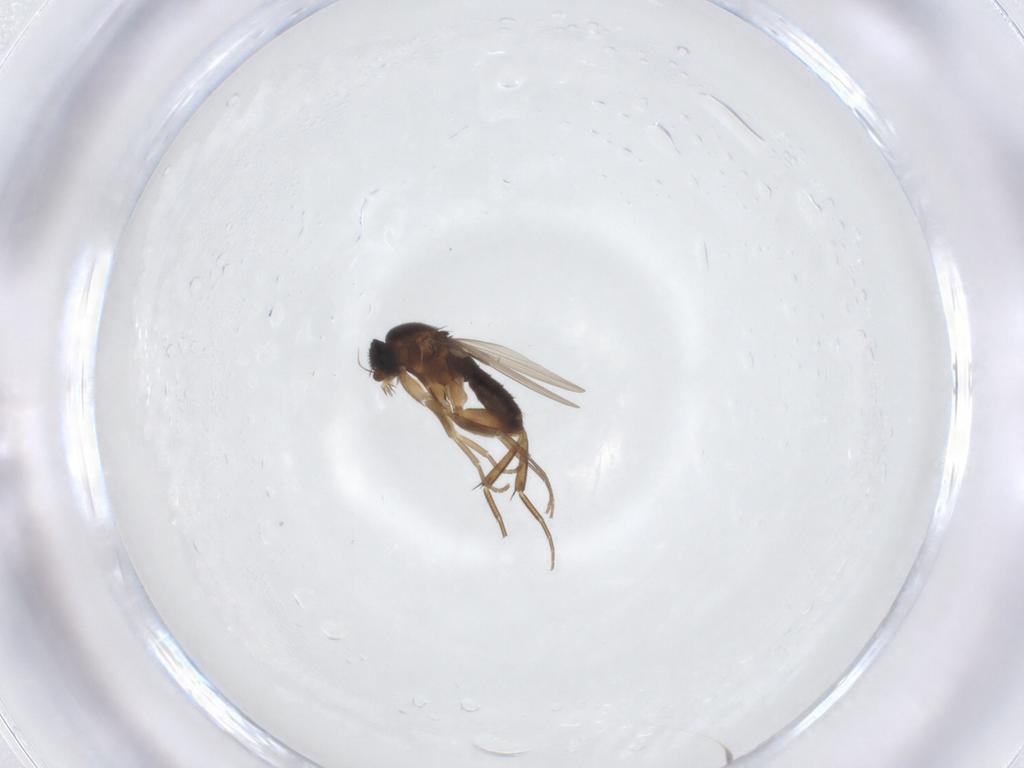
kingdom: Animalia
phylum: Arthropoda
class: Insecta
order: Diptera
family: Phoridae
